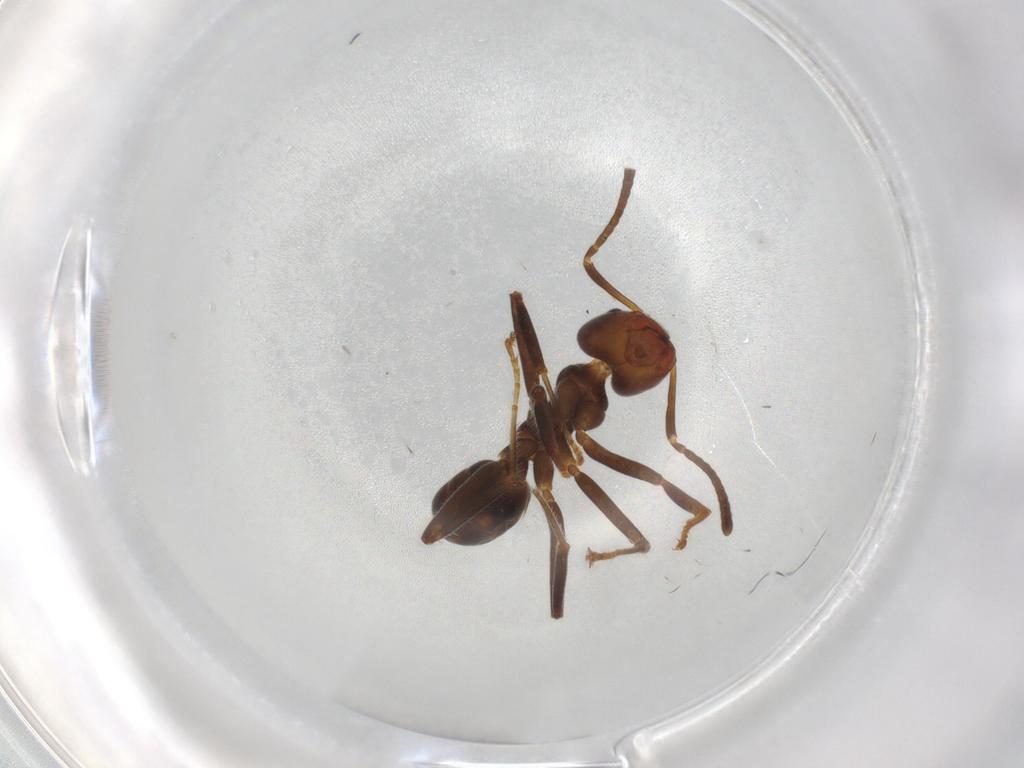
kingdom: Animalia
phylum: Arthropoda
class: Insecta
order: Hymenoptera
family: Formicidae
